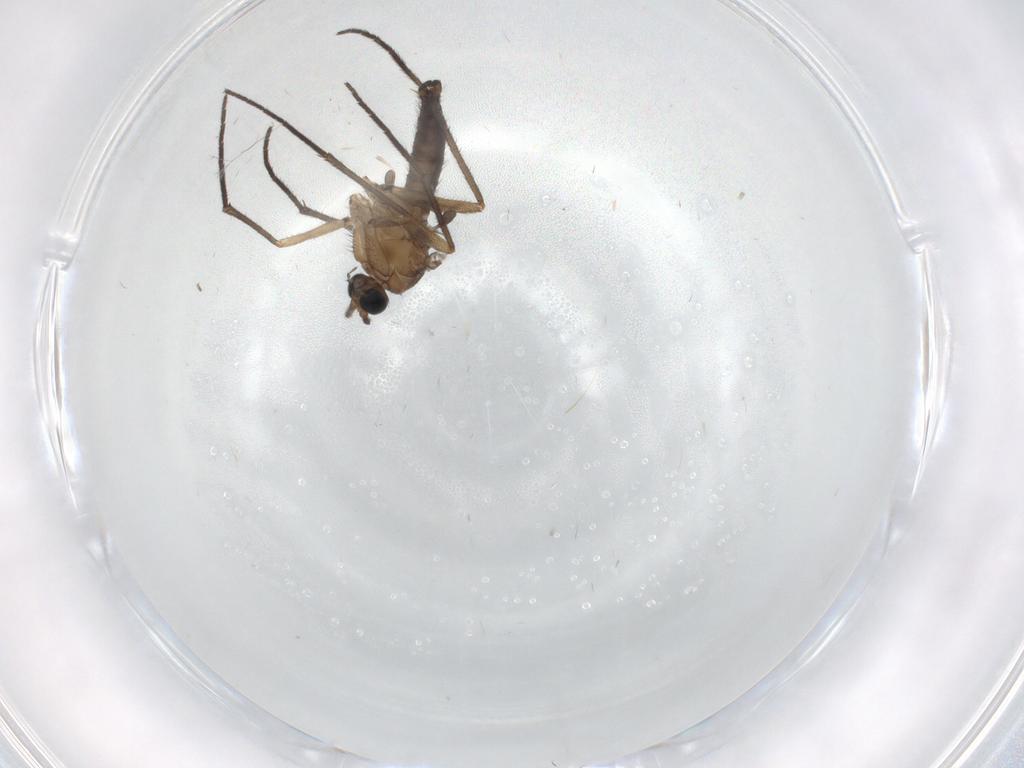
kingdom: Animalia
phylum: Arthropoda
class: Insecta
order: Diptera
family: Sciaridae
